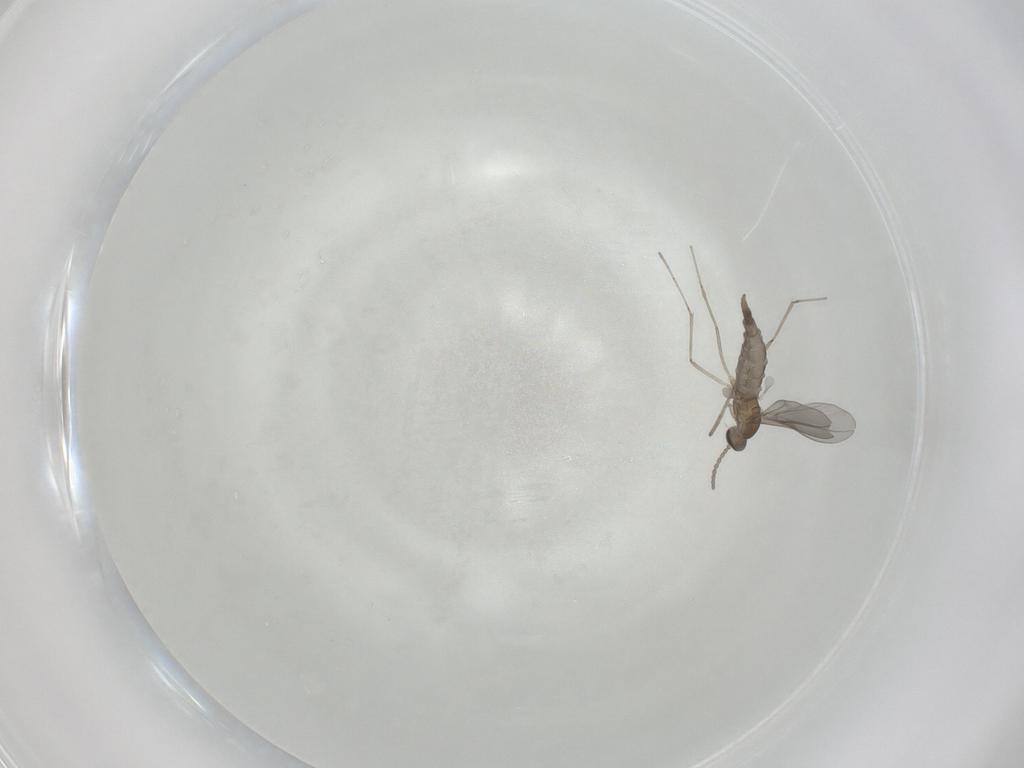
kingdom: Animalia
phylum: Arthropoda
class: Insecta
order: Diptera
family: Cecidomyiidae
